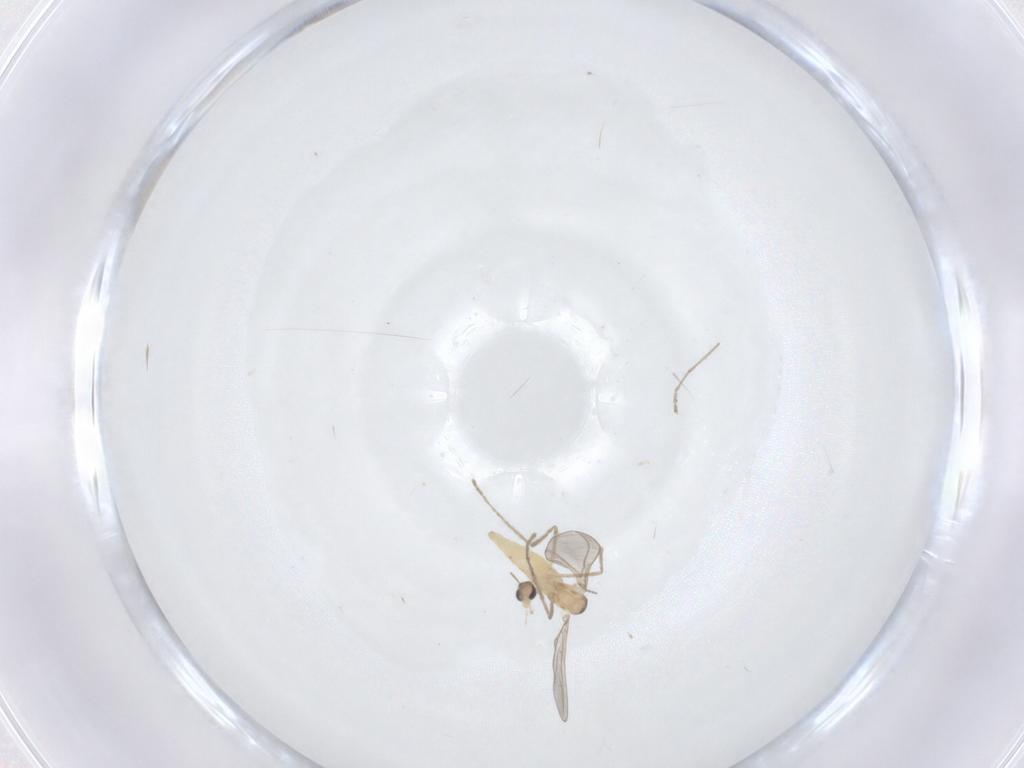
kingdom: Animalia
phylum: Arthropoda
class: Insecta
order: Diptera
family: Cecidomyiidae
